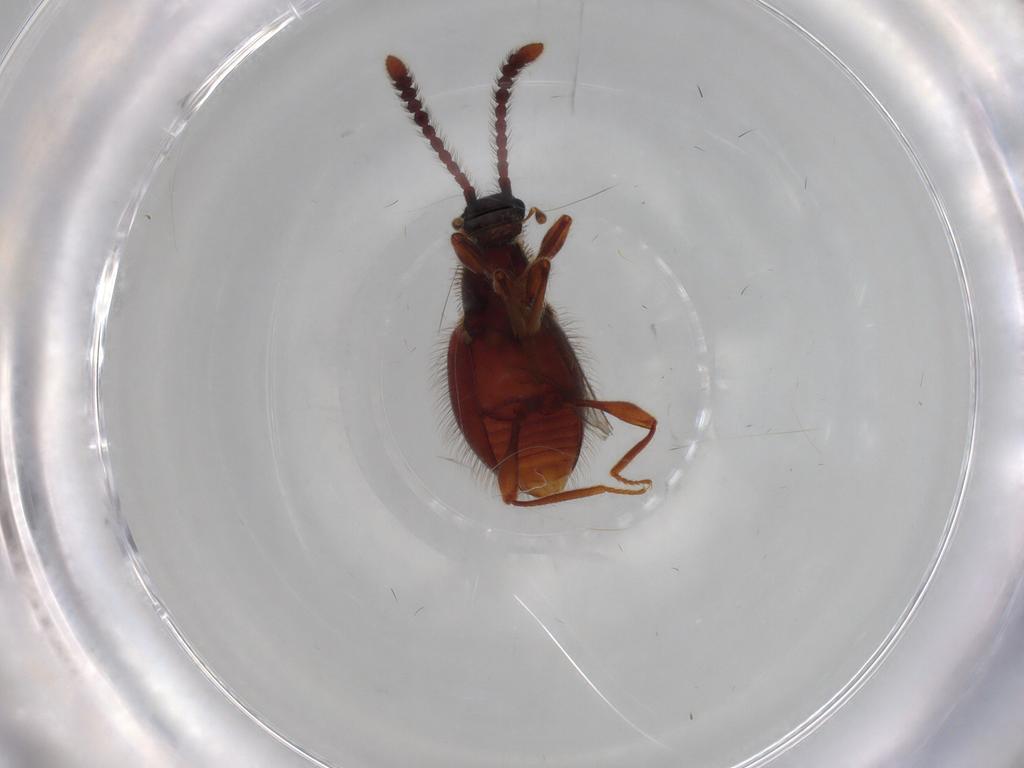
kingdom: Animalia
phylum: Arthropoda
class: Insecta
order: Coleoptera
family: Staphylinidae
